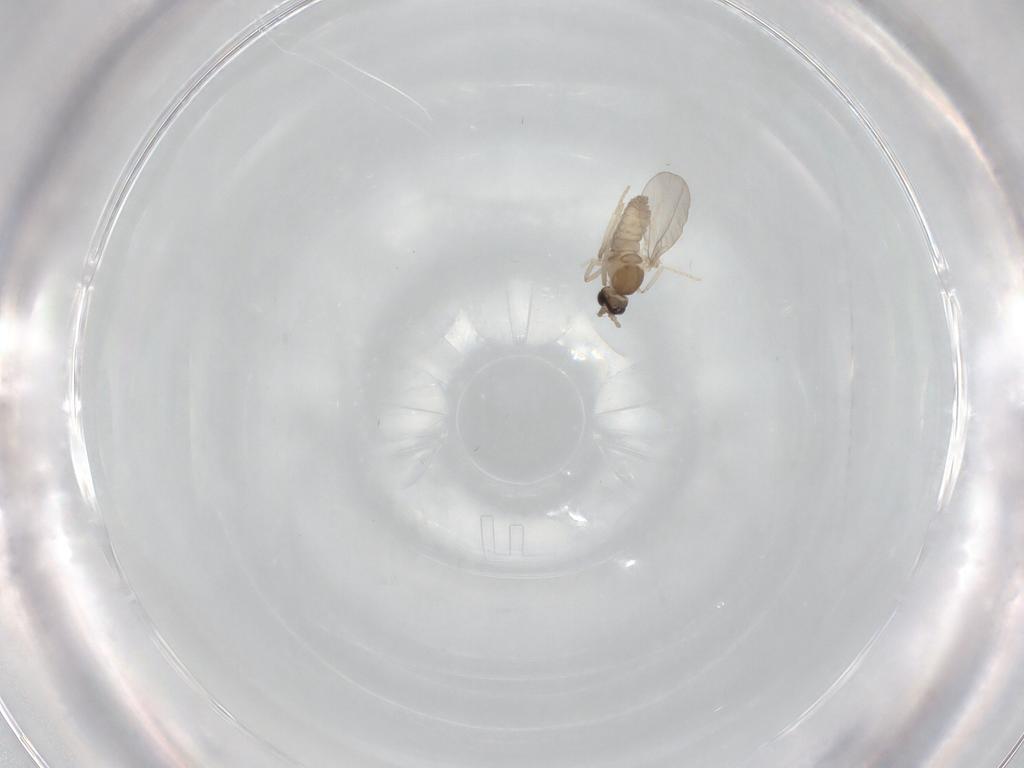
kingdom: Animalia
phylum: Arthropoda
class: Insecta
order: Diptera
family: Cecidomyiidae
